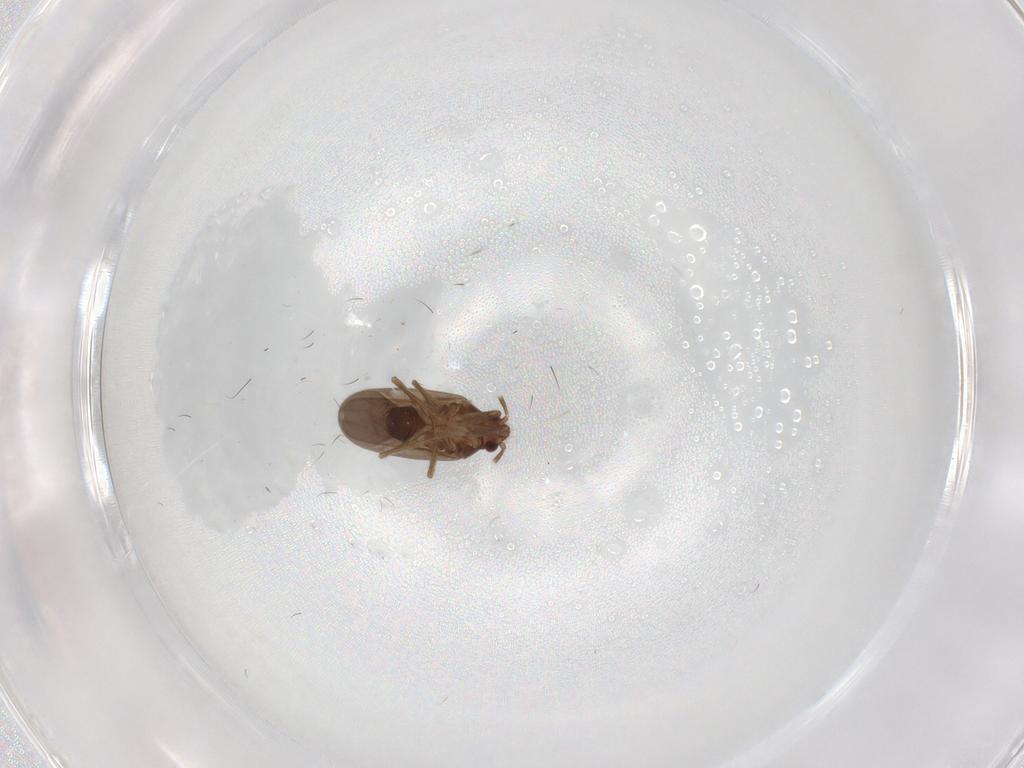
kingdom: Animalia
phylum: Arthropoda
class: Insecta
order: Hemiptera
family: Ceratocombidae
